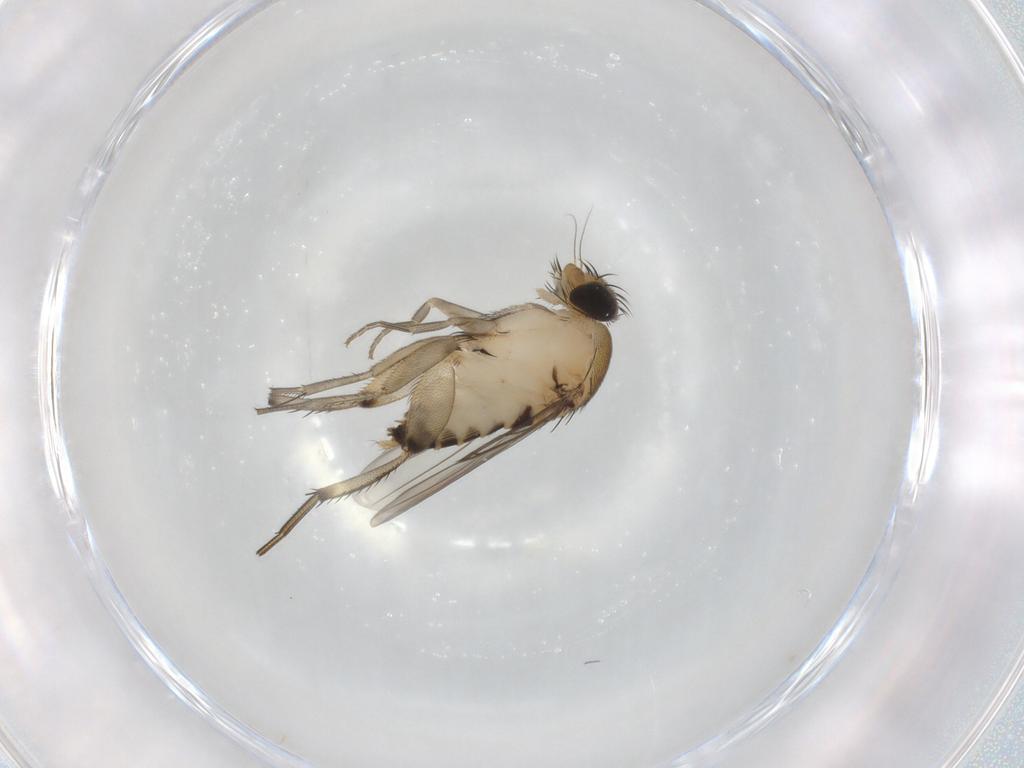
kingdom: Animalia
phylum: Arthropoda
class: Insecta
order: Diptera
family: Phoridae
